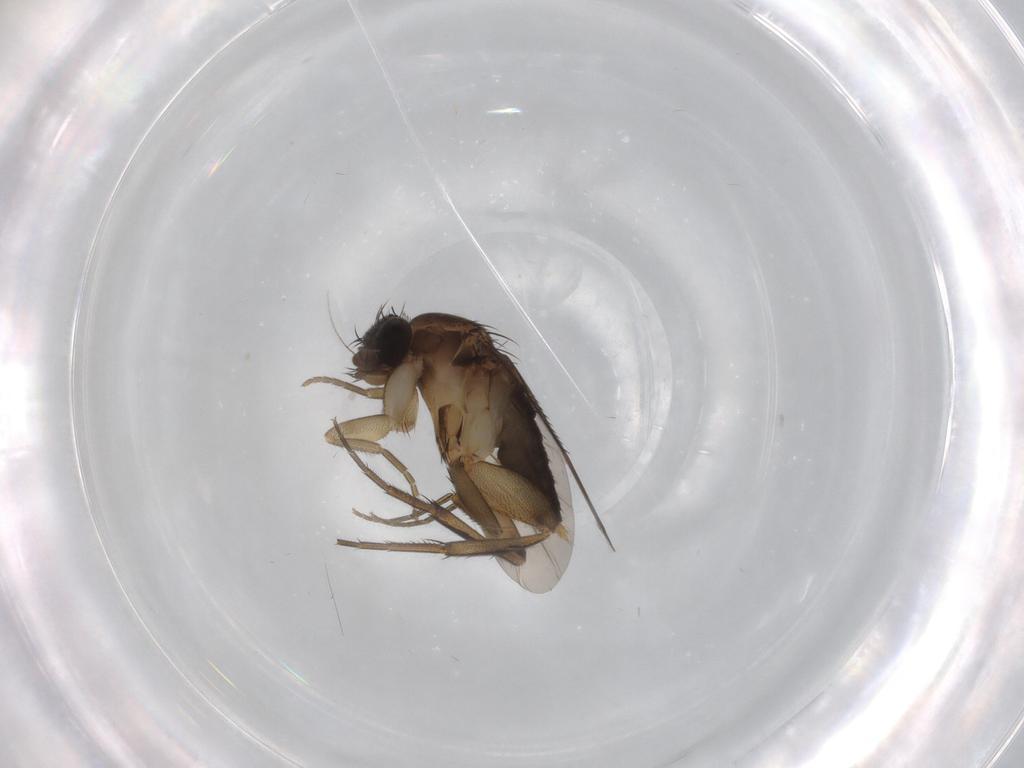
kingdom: Animalia
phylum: Arthropoda
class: Insecta
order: Diptera
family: Phoridae
